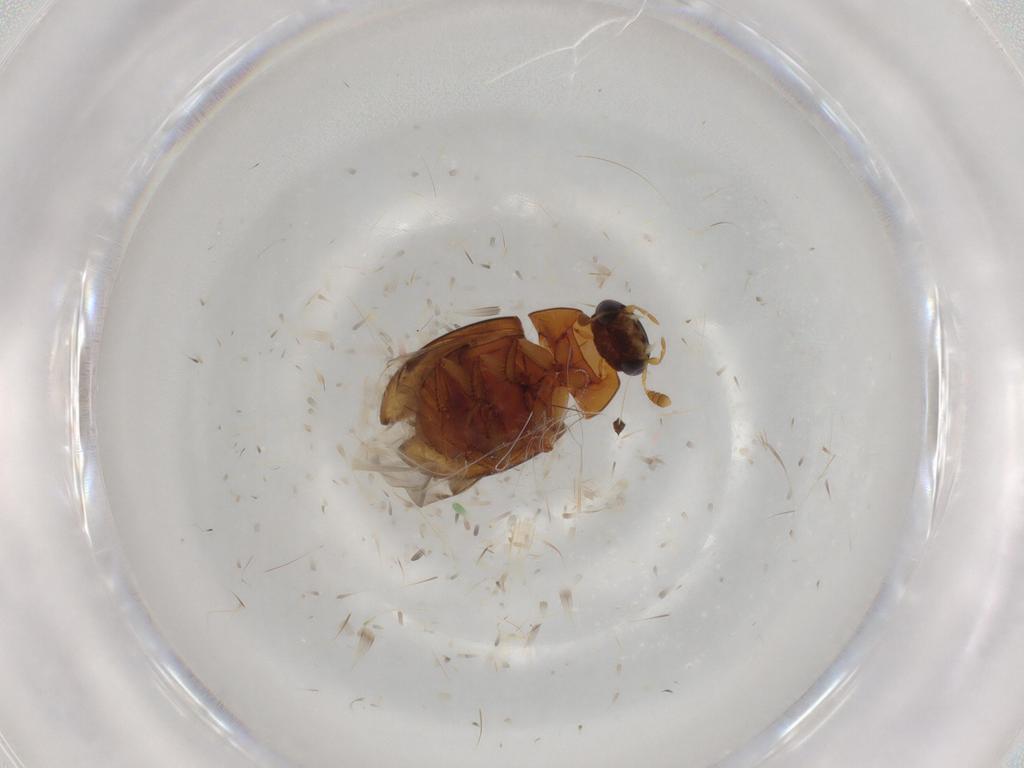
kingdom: Animalia
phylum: Arthropoda
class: Insecta
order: Coleoptera
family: Hydrophilidae
